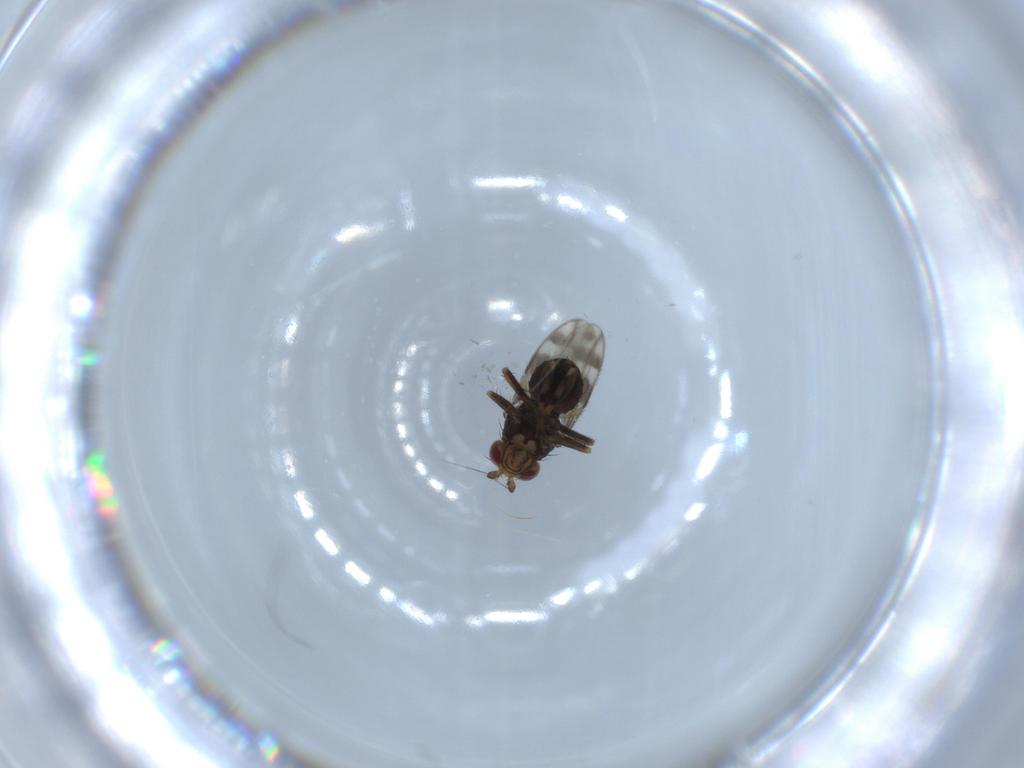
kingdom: Animalia
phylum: Arthropoda
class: Insecta
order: Diptera
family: Sphaeroceridae
